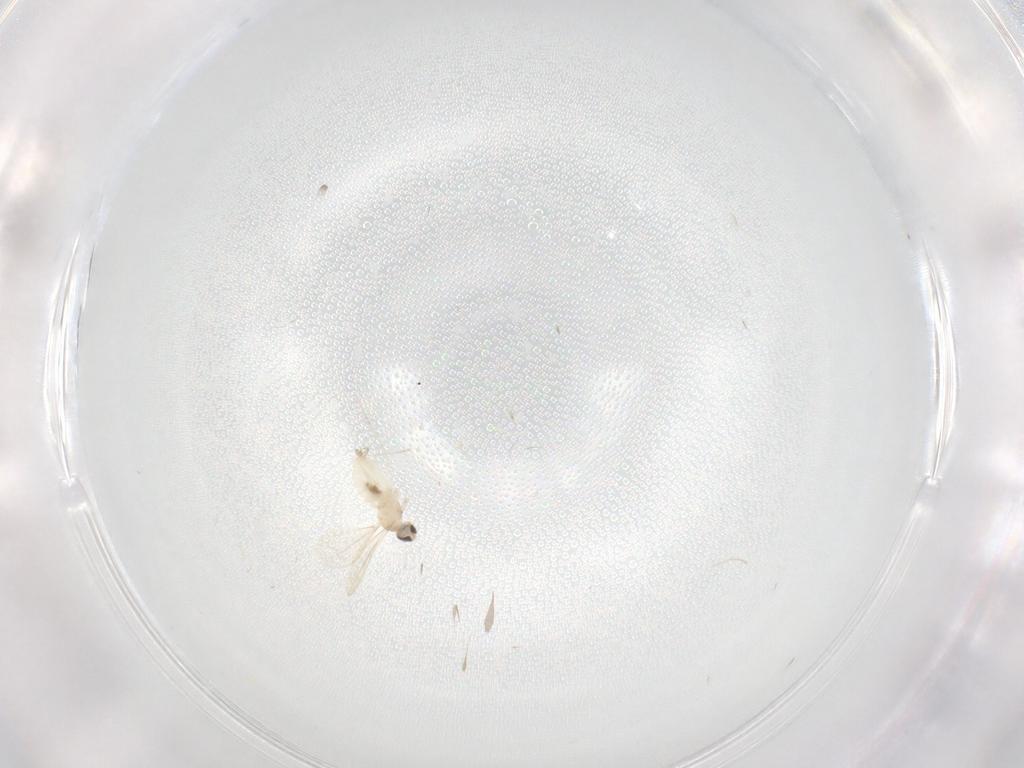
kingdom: Animalia
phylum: Arthropoda
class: Insecta
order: Diptera
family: Cecidomyiidae
